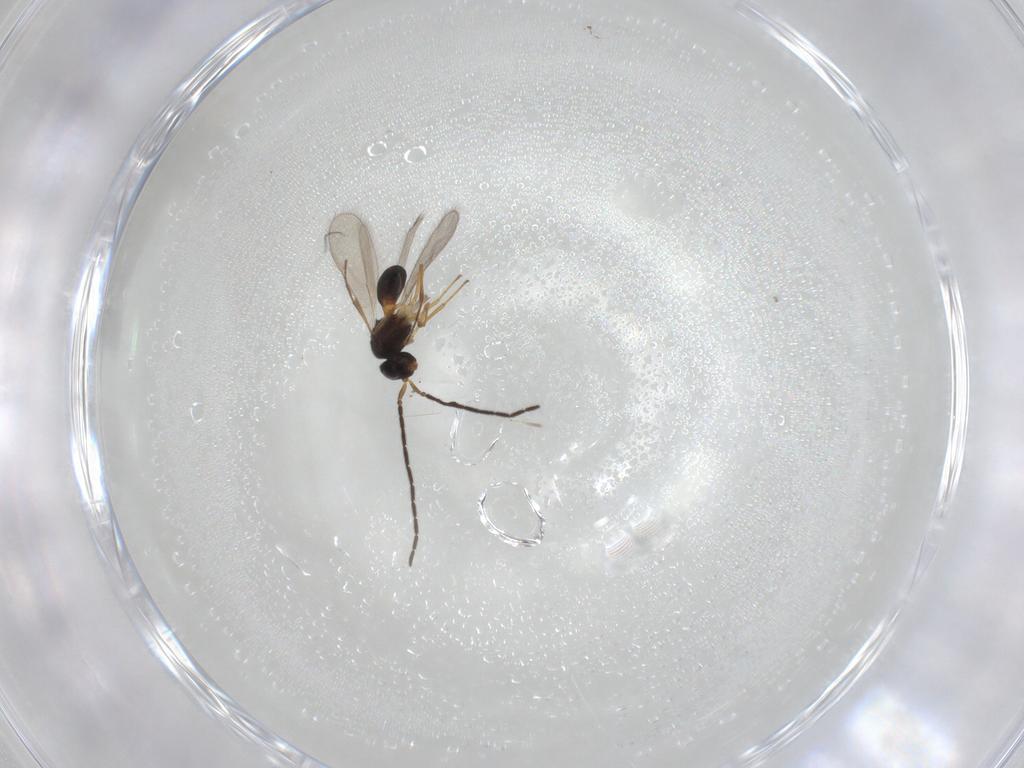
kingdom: Animalia
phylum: Arthropoda
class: Insecta
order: Hymenoptera
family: Scelionidae
